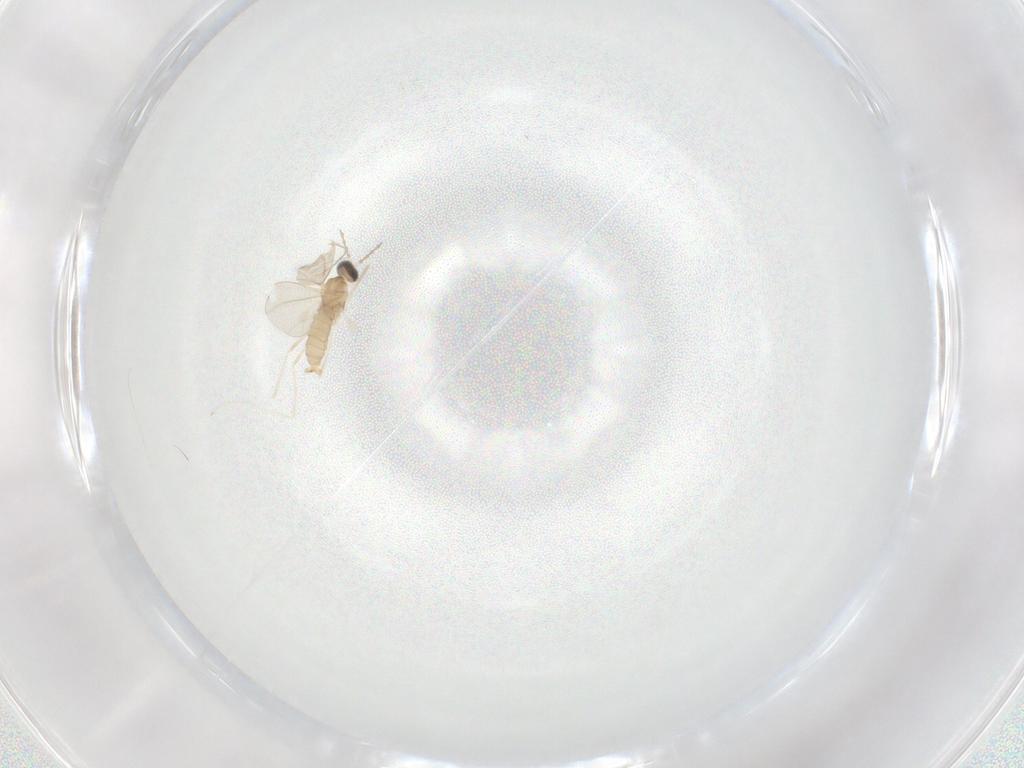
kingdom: Animalia
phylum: Arthropoda
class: Insecta
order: Diptera
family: Cecidomyiidae
